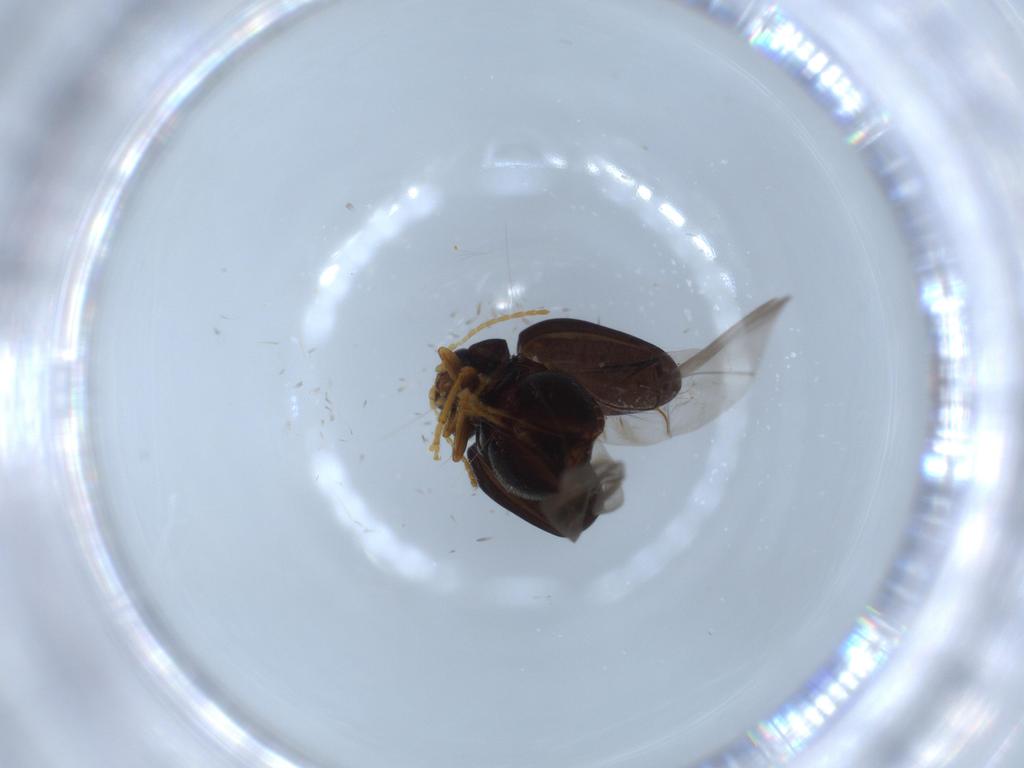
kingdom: Animalia
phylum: Arthropoda
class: Insecta
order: Coleoptera
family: Chrysomelidae
